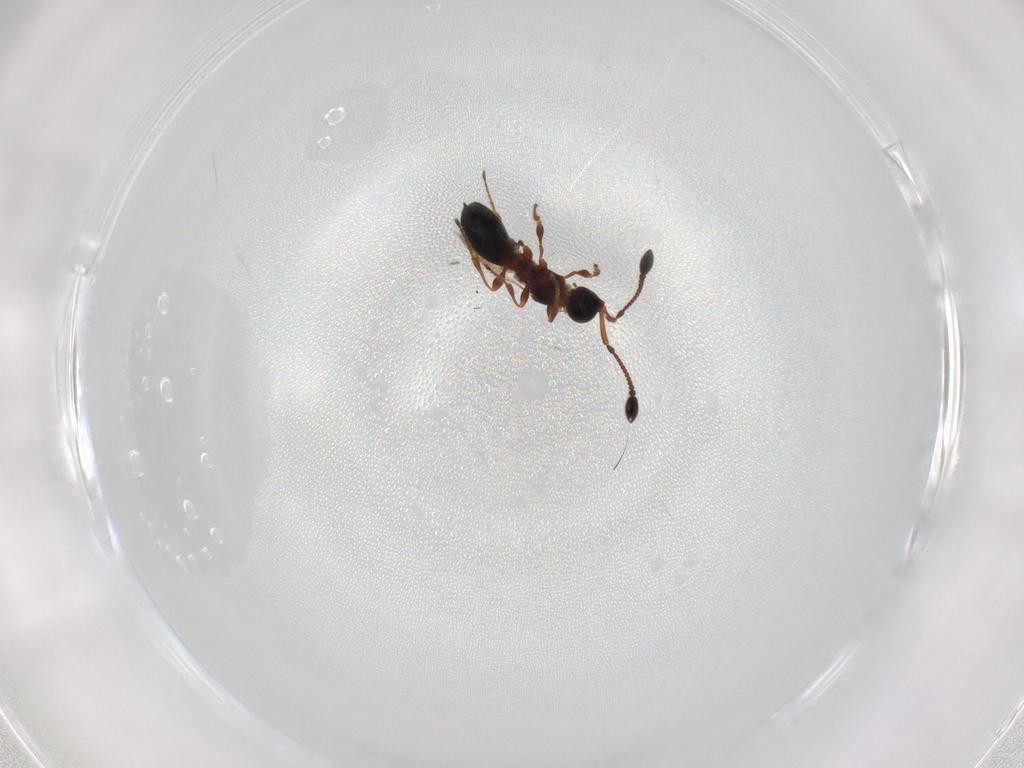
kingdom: Animalia
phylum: Arthropoda
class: Insecta
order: Hymenoptera
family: Diapriidae
